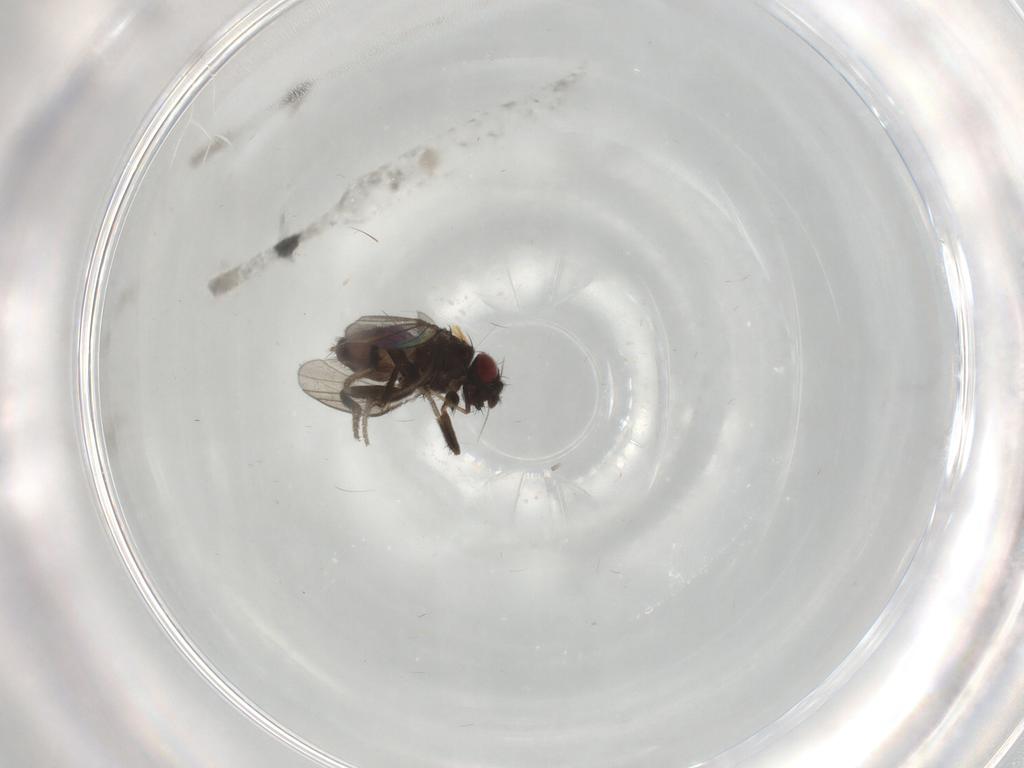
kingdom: Animalia
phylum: Arthropoda
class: Insecta
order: Diptera
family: Milichiidae
